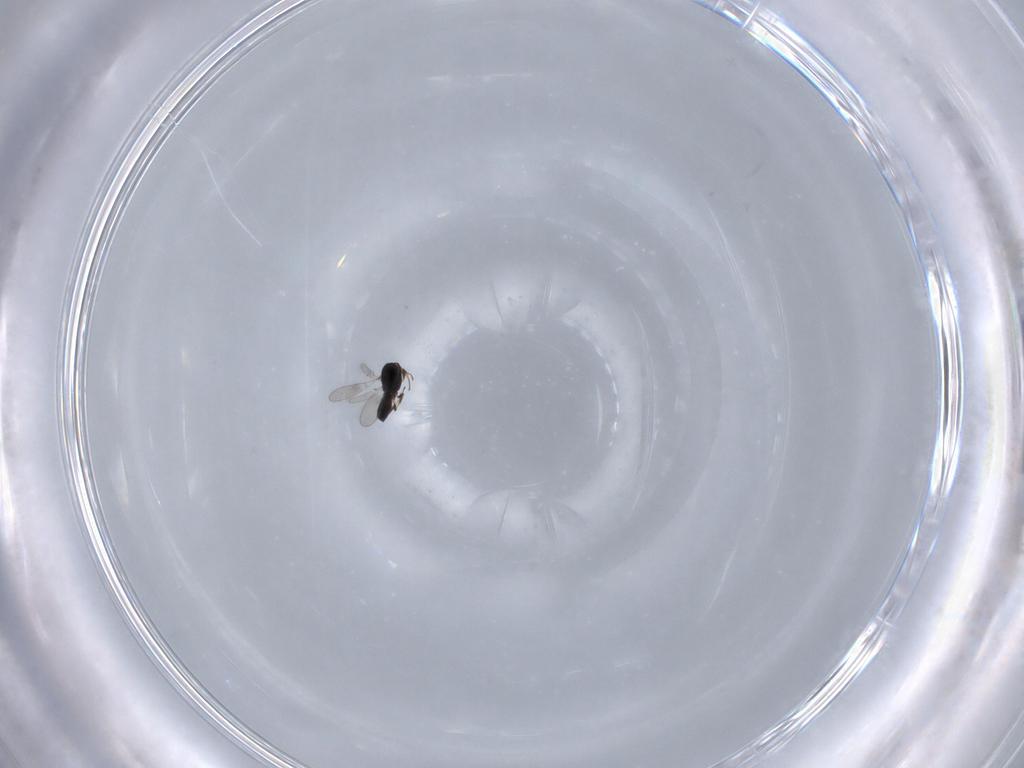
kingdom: Animalia
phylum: Arthropoda
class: Insecta
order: Hymenoptera
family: Scelionidae
